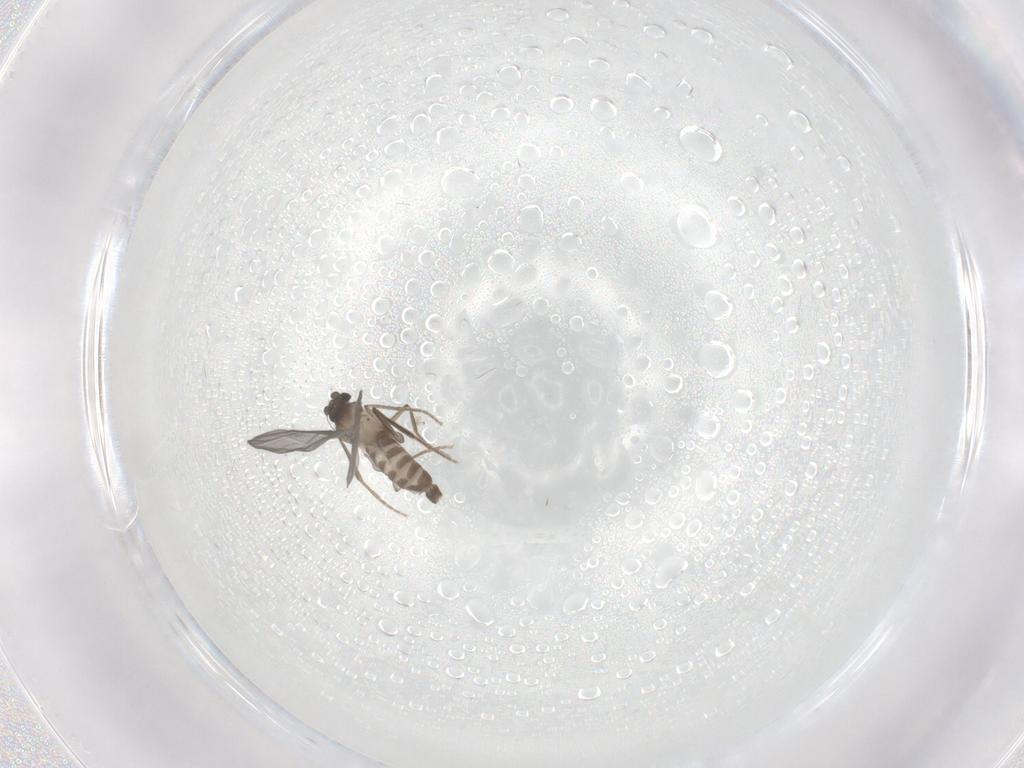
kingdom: Animalia
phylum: Arthropoda
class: Insecta
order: Diptera
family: Phoridae
